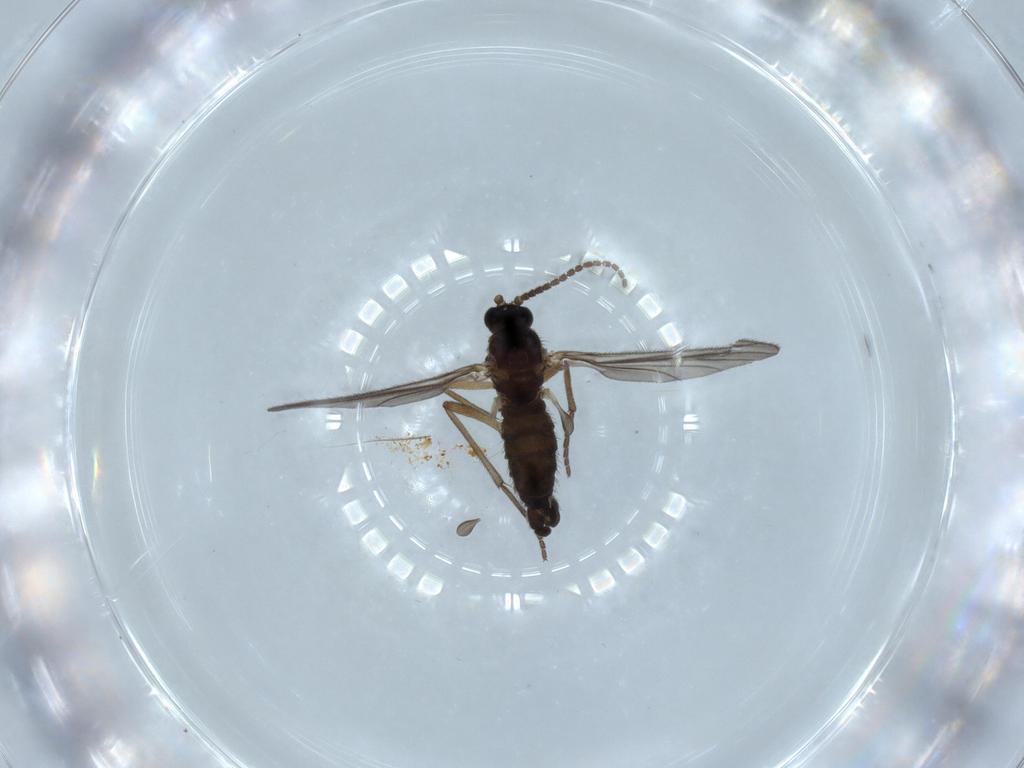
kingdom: Animalia
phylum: Arthropoda
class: Insecta
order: Diptera
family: Sciaridae
